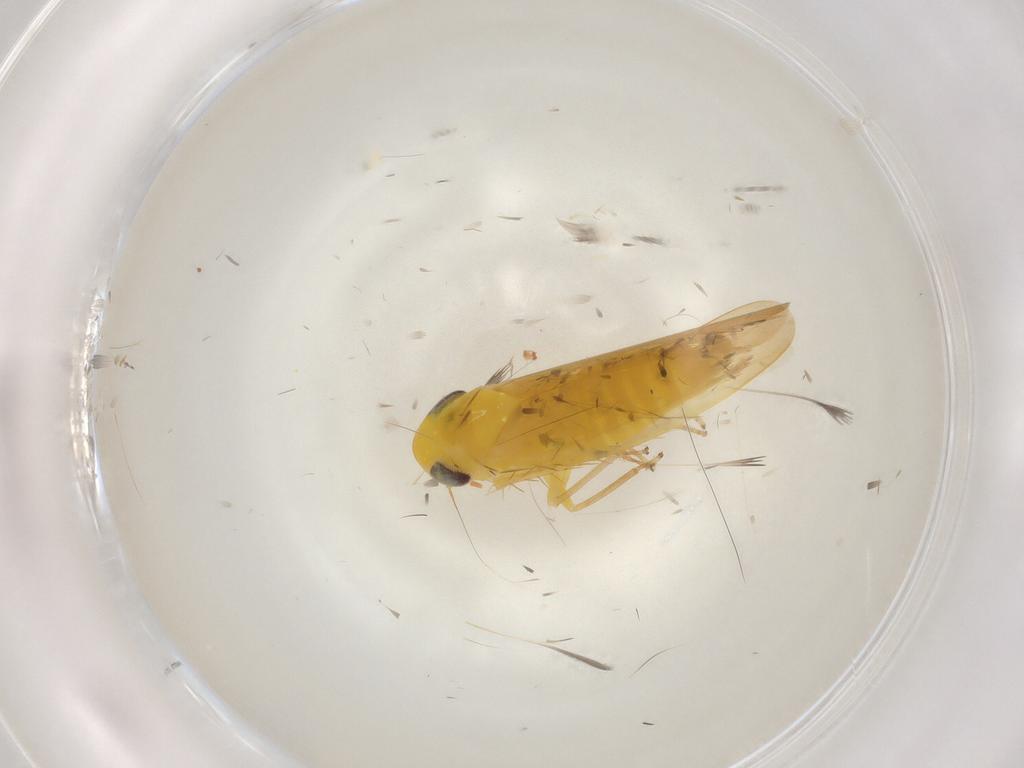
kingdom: Animalia
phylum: Arthropoda
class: Insecta
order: Hemiptera
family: Cicadellidae
